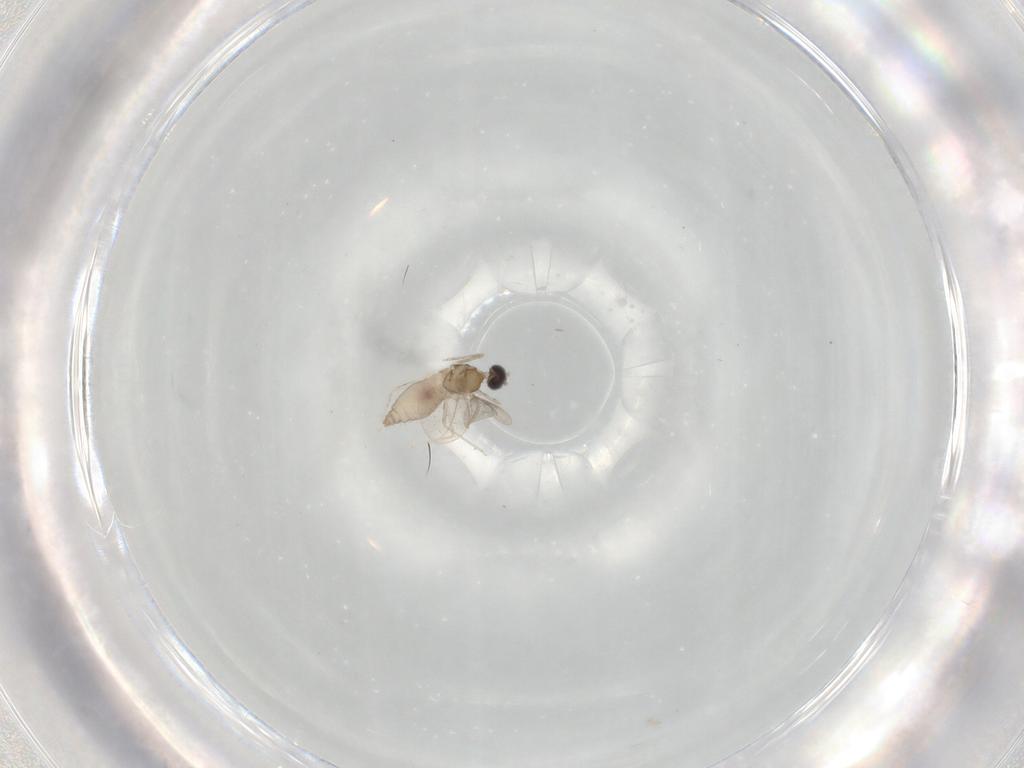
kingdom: Animalia
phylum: Arthropoda
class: Insecta
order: Diptera
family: Cecidomyiidae
